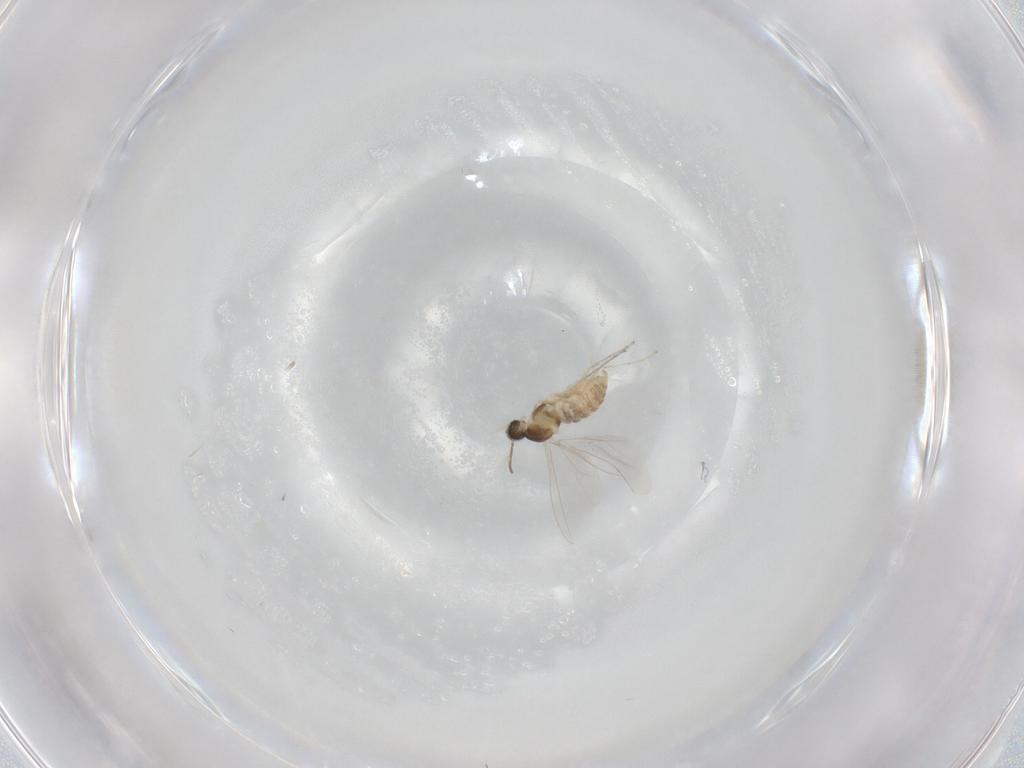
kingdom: Animalia
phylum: Arthropoda
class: Insecta
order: Diptera
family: Cecidomyiidae
